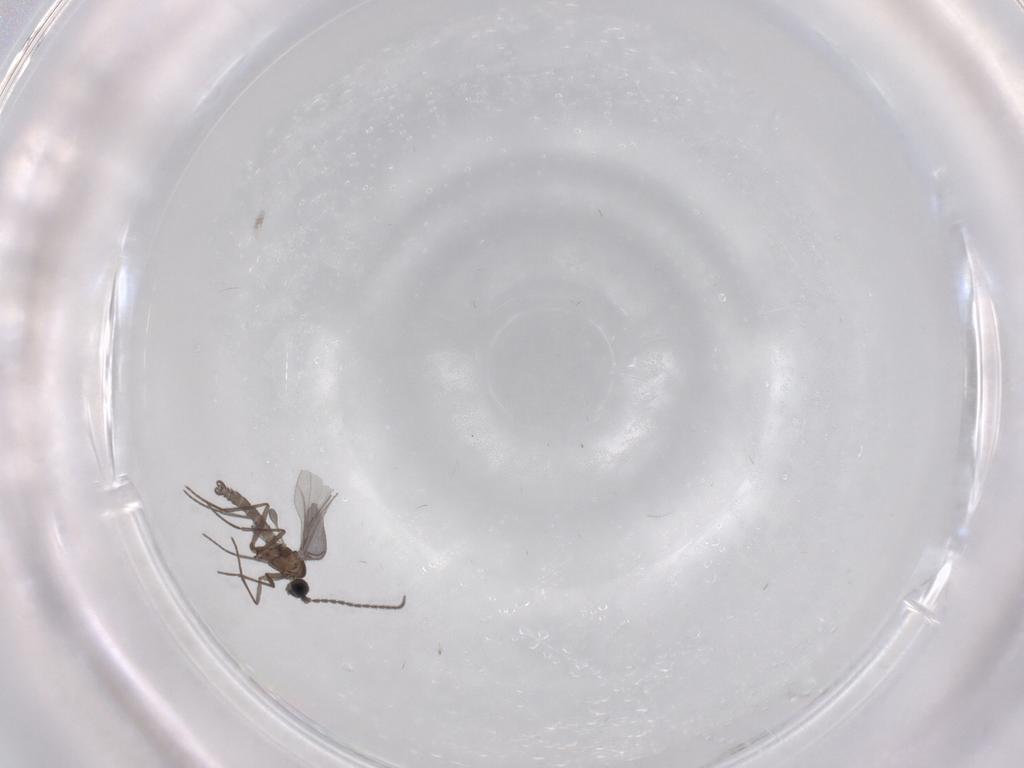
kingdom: Animalia
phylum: Arthropoda
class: Insecta
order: Diptera
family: Sciaridae
